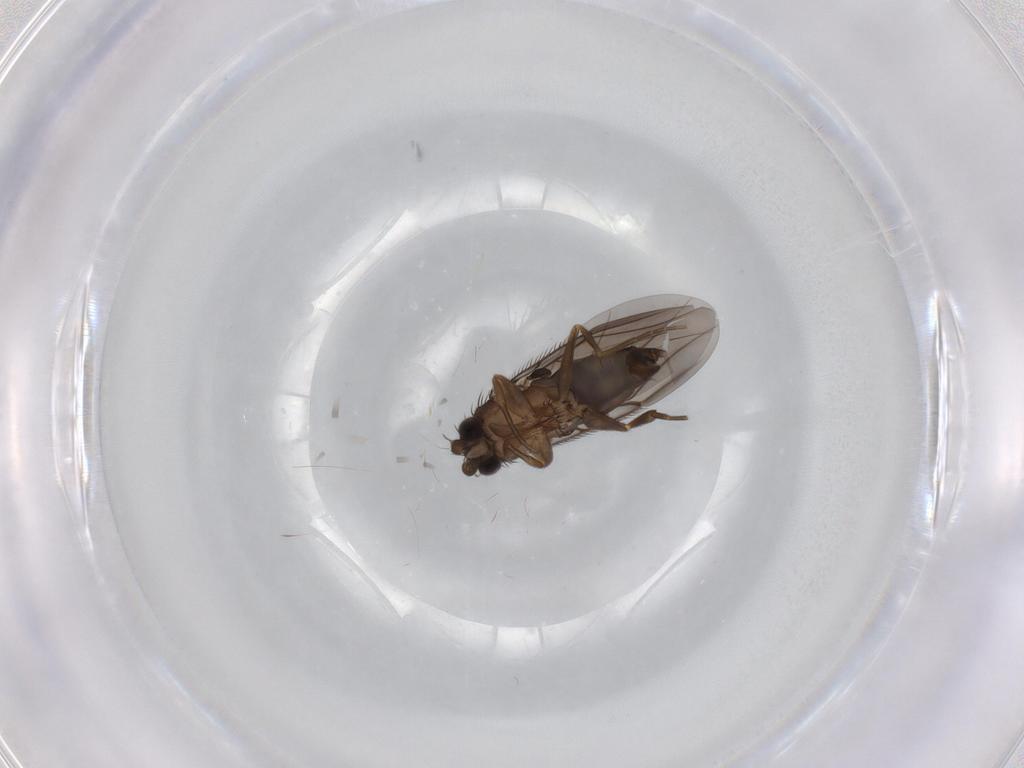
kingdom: Animalia
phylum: Arthropoda
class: Insecta
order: Diptera
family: Phoridae
